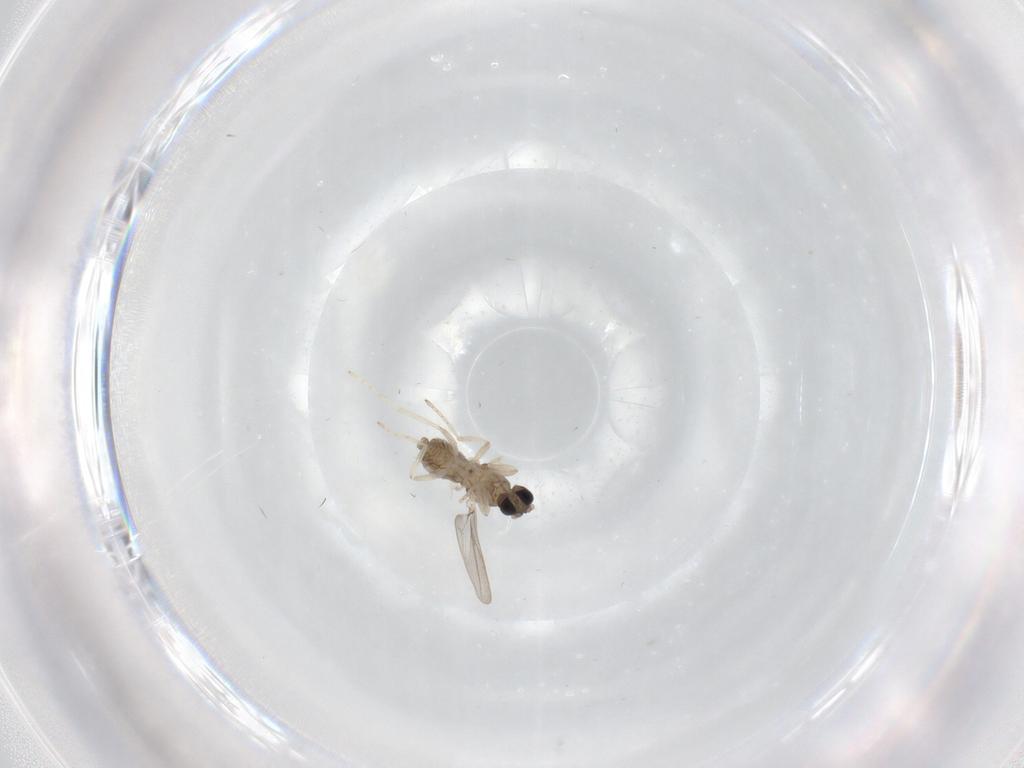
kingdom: Animalia
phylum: Arthropoda
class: Insecta
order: Diptera
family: Cecidomyiidae
